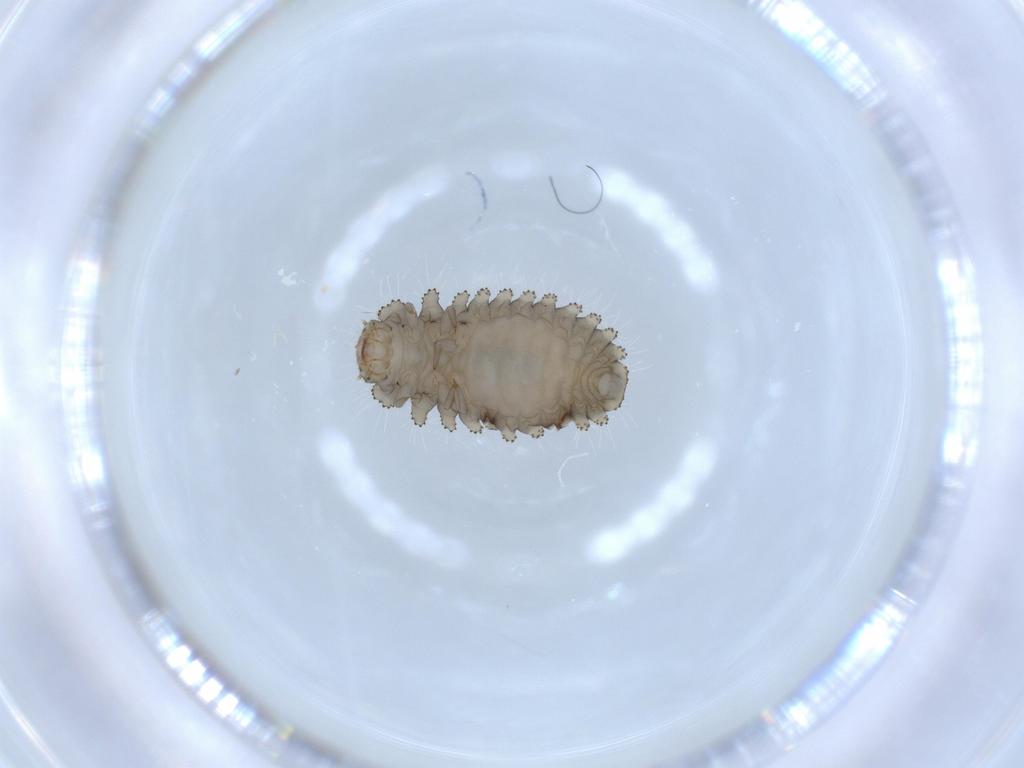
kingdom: Animalia
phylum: Arthropoda
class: Insecta
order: Coleoptera
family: Coccinellidae
